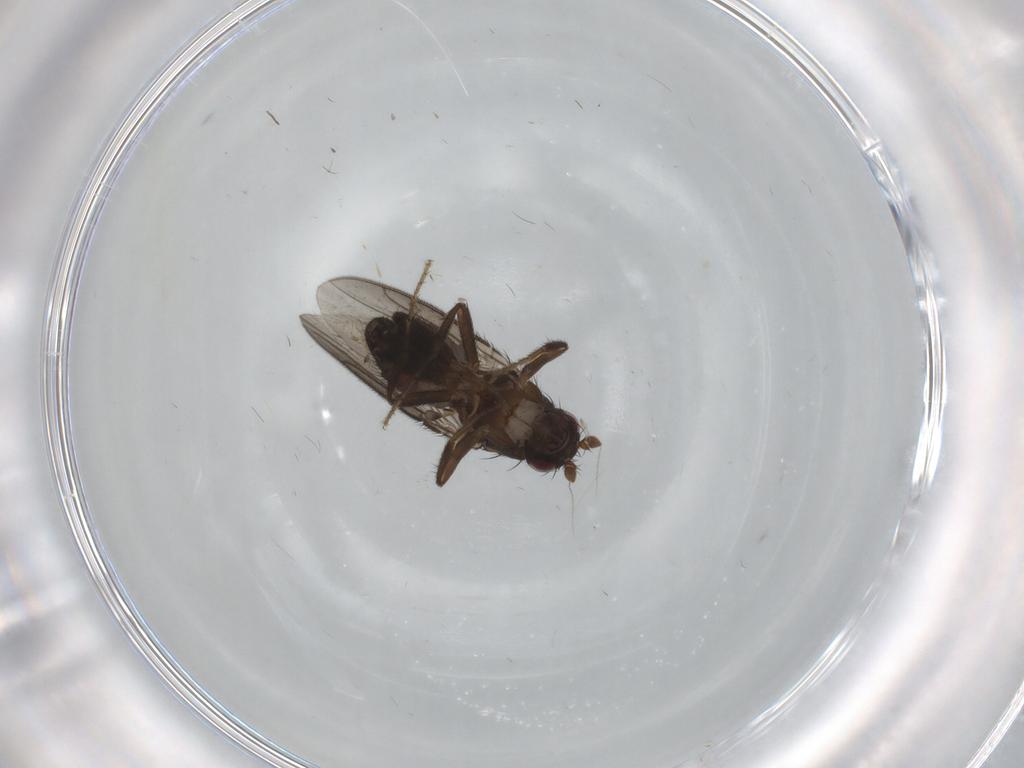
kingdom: Animalia
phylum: Arthropoda
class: Insecta
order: Diptera
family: Sphaeroceridae
